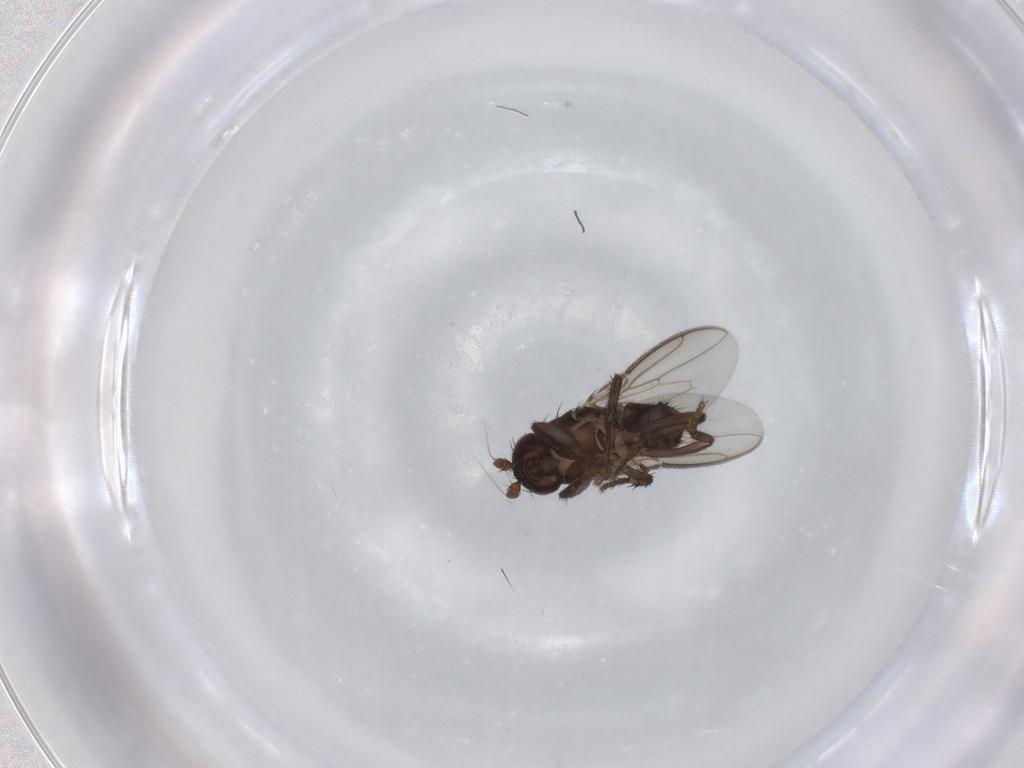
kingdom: Animalia
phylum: Arthropoda
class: Insecta
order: Diptera
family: Sphaeroceridae
